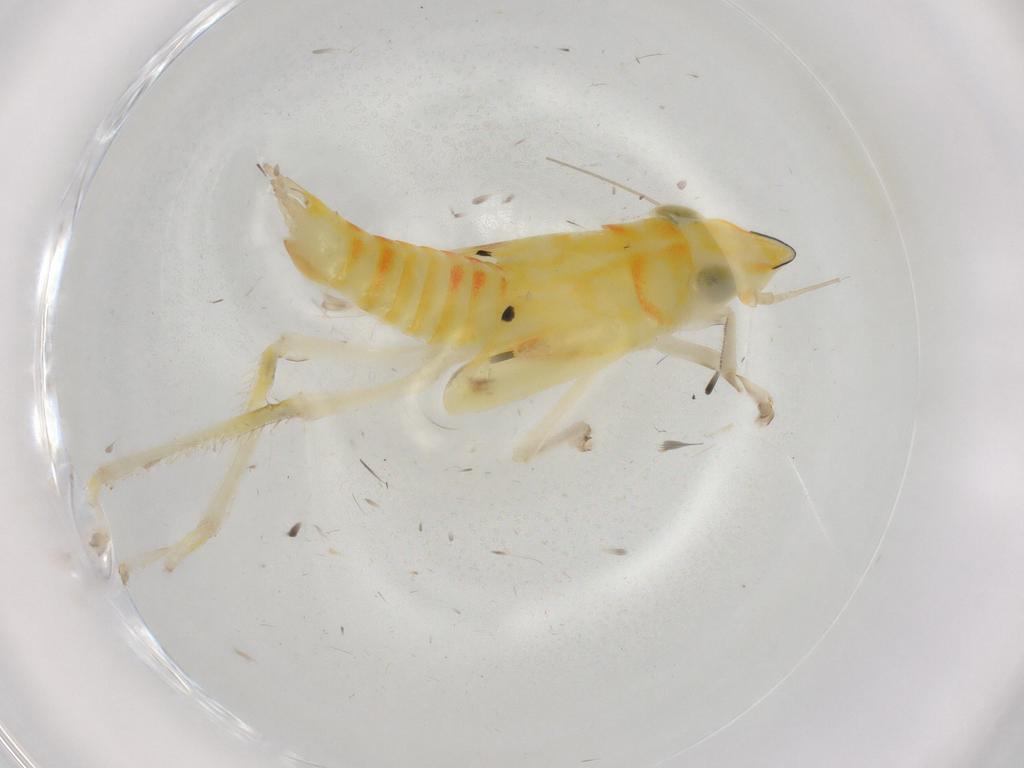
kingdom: Animalia
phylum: Arthropoda
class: Insecta
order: Hemiptera
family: Cicadellidae
